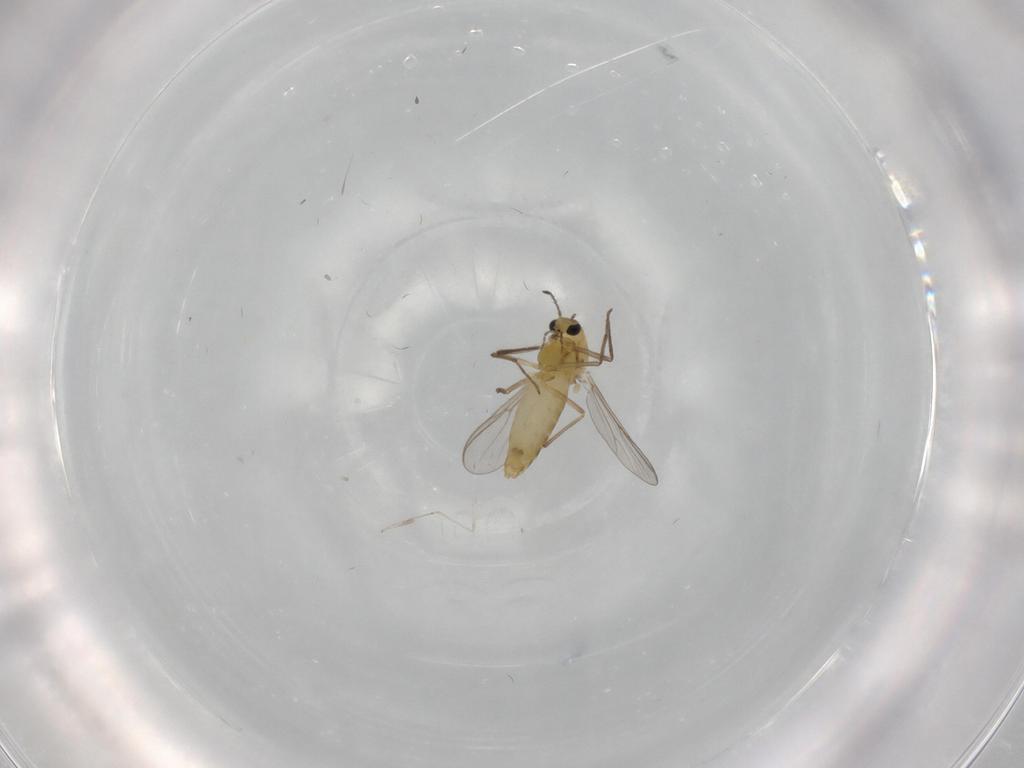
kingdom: Animalia
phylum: Arthropoda
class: Insecta
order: Diptera
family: Chironomidae
